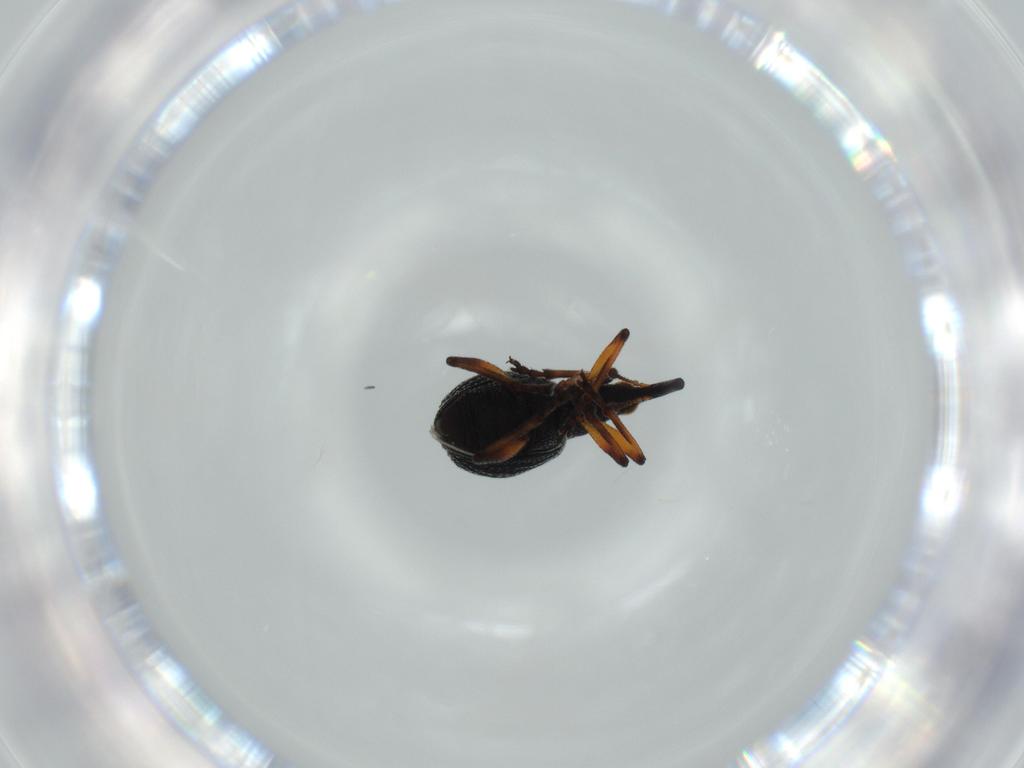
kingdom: Animalia
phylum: Arthropoda
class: Insecta
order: Coleoptera
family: Brentidae
